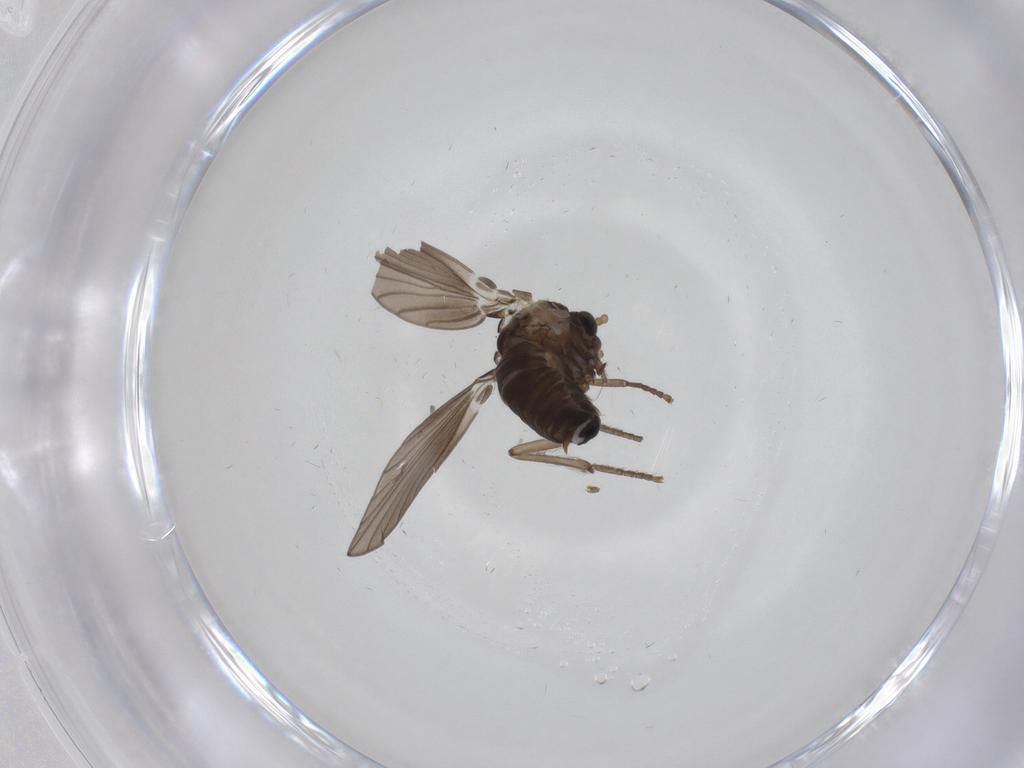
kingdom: Animalia
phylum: Arthropoda
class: Insecta
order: Diptera
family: Psychodidae
